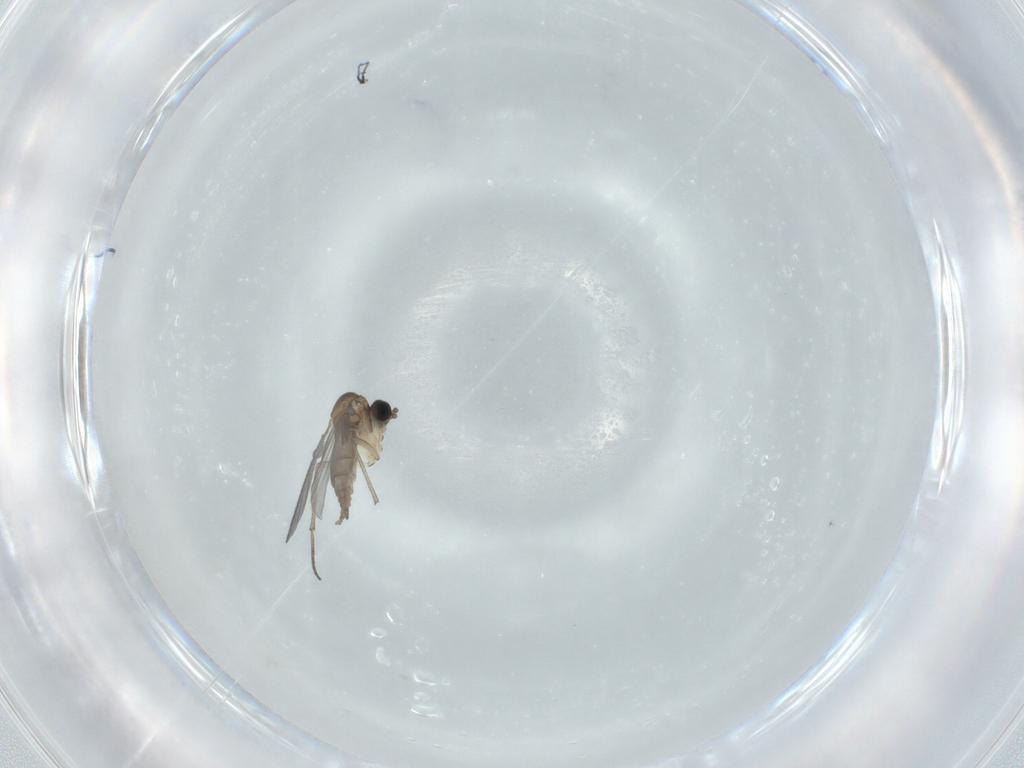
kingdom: Animalia
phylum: Arthropoda
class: Insecta
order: Diptera
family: Sciaridae
